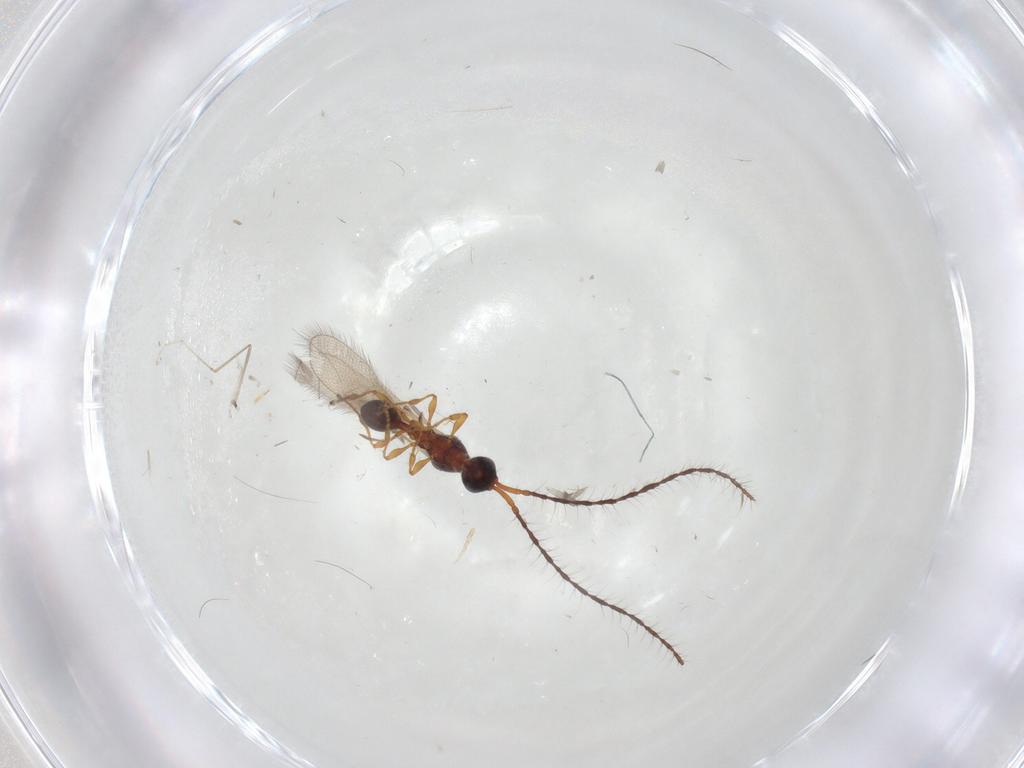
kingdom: Animalia
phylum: Arthropoda
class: Insecta
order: Hymenoptera
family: Diapriidae
